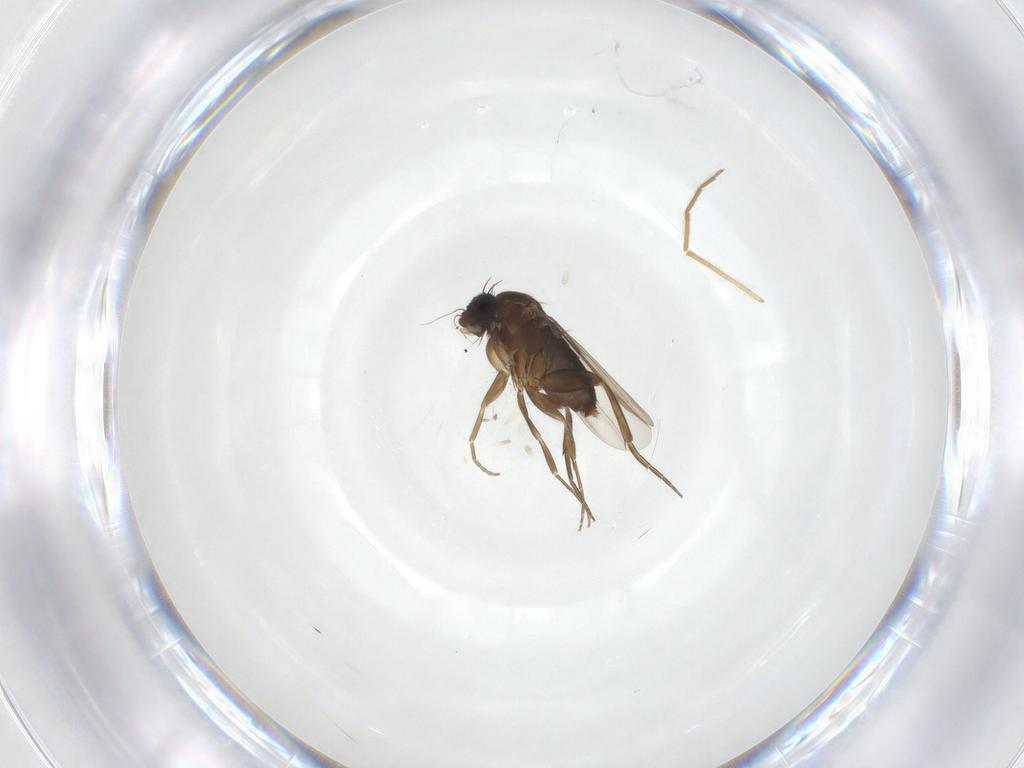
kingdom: Animalia
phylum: Arthropoda
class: Insecta
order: Diptera
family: Phoridae
